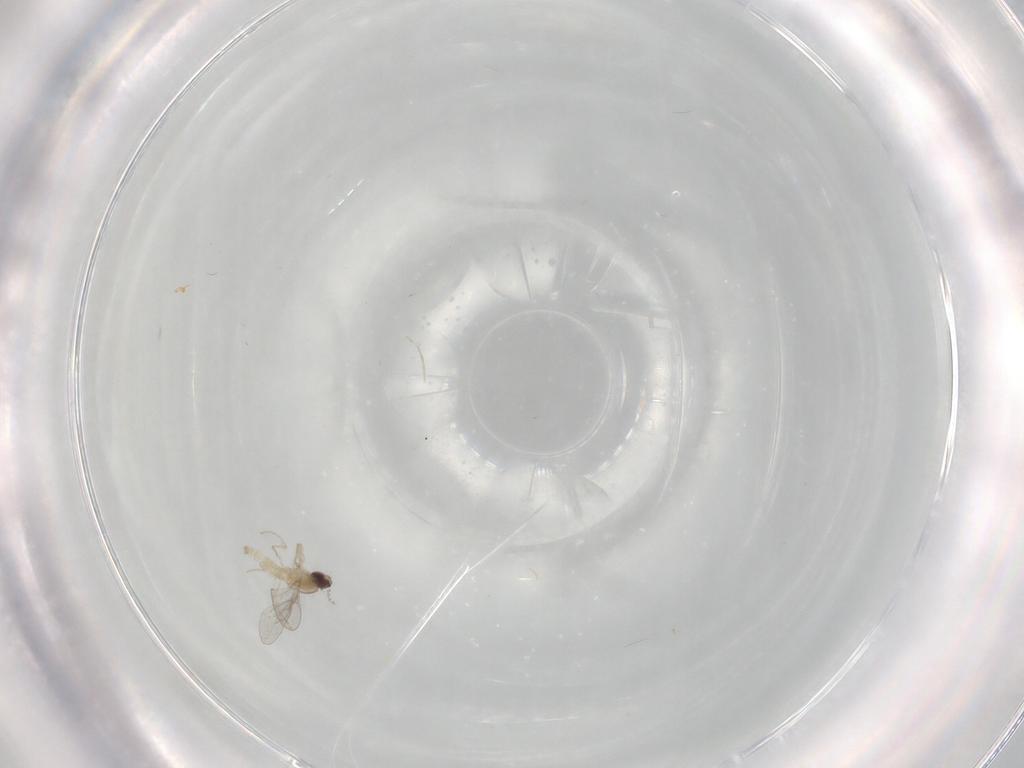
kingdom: Animalia
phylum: Arthropoda
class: Insecta
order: Diptera
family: Cecidomyiidae
